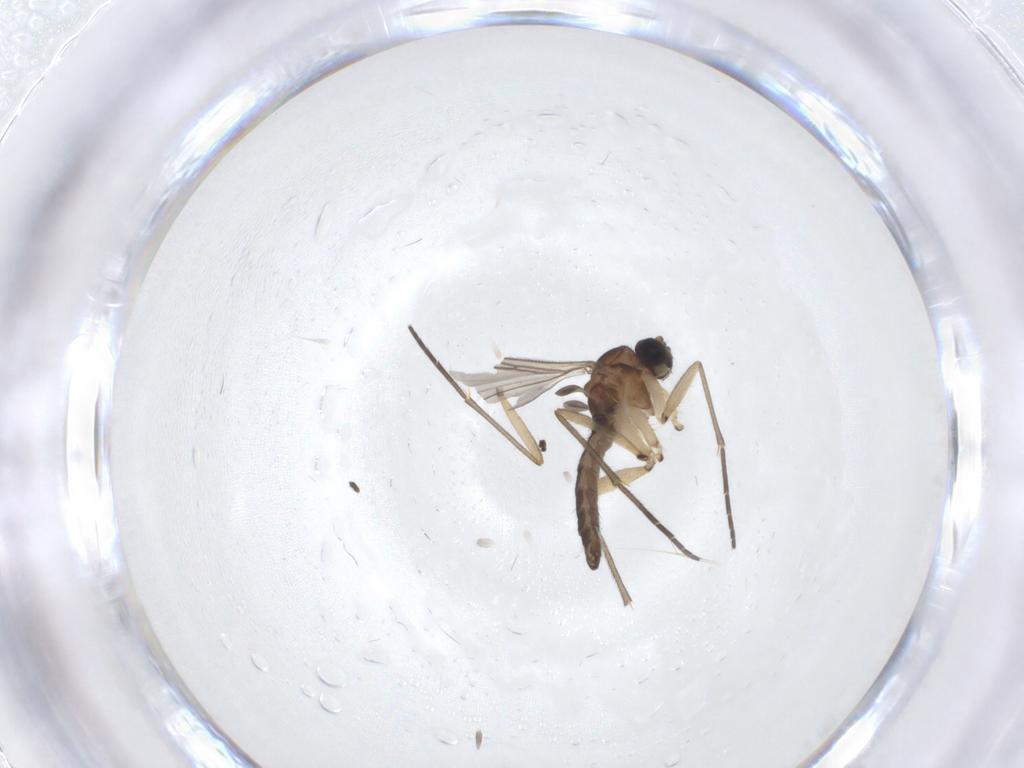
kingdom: Animalia
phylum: Arthropoda
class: Insecta
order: Diptera
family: Sciaridae
